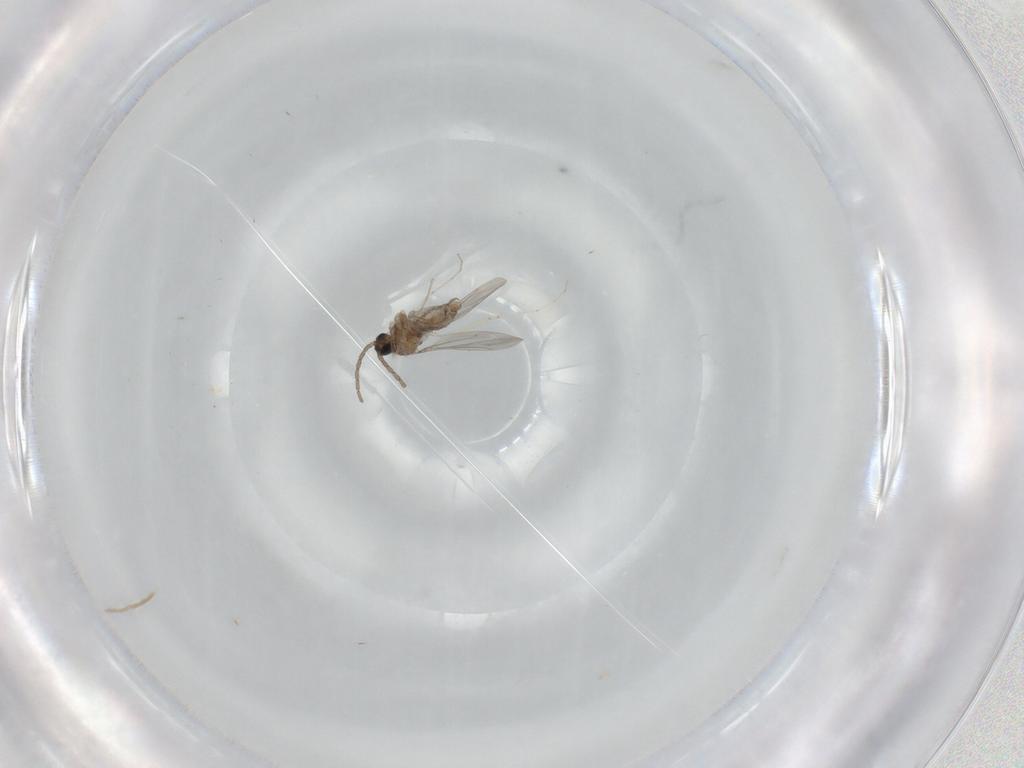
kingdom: Animalia
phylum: Arthropoda
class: Insecta
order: Diptera
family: Cecidomyiidae
